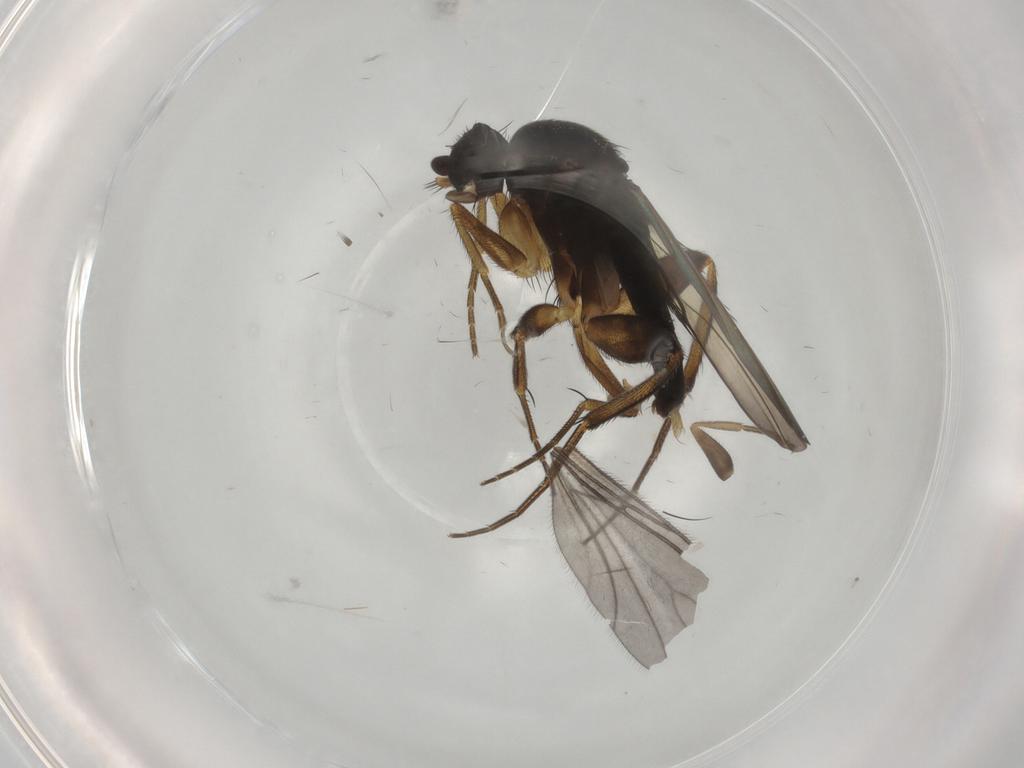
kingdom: Animalia
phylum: Arthropoda
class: Insecta
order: Diptera
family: Phoridae
